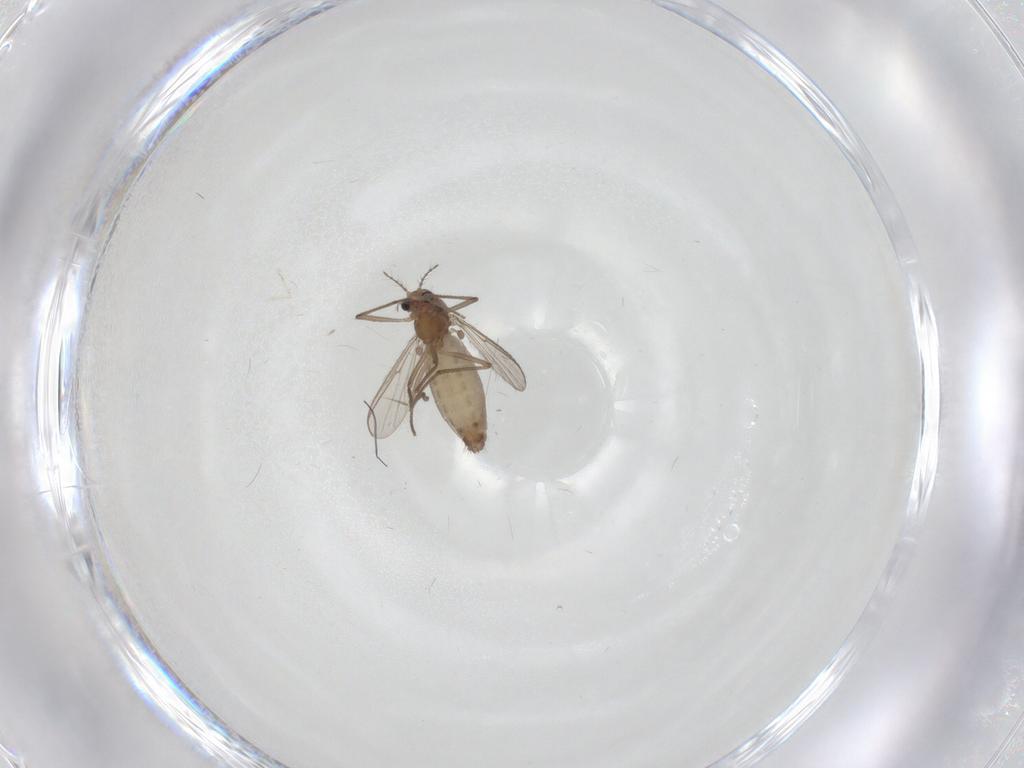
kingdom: Animalia
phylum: Arthropoda
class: Insecta
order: Diptera
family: Chironomidae
